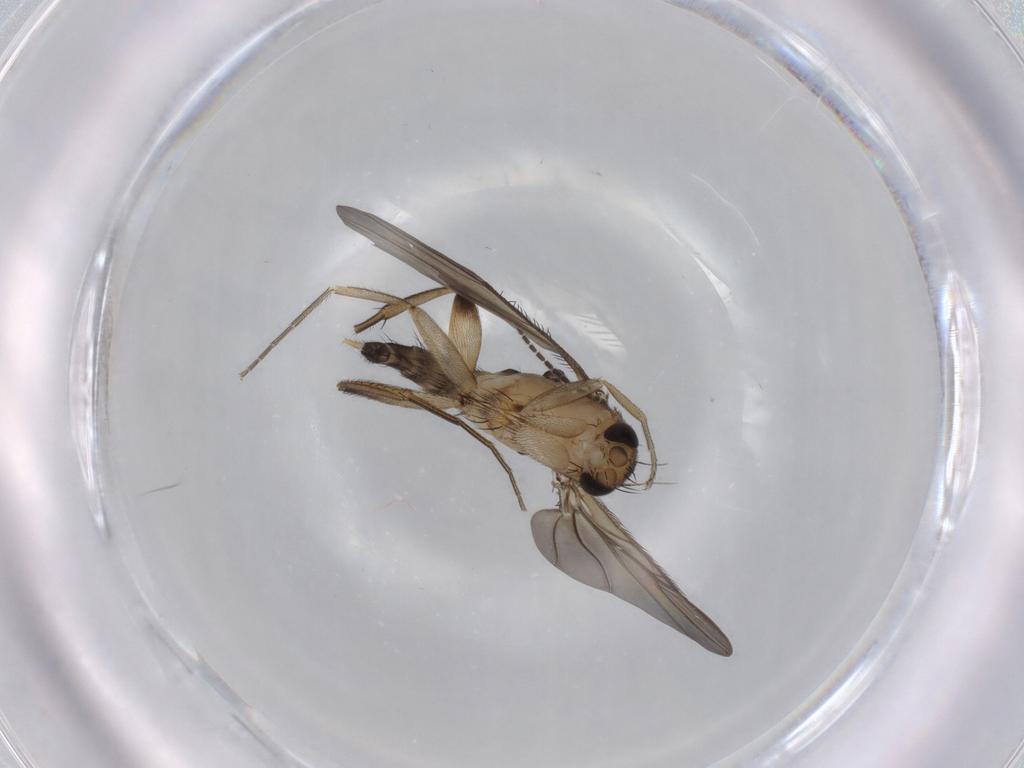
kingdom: Animalia
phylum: Arthropoda
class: Insecta
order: Diptera
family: Phoridae
